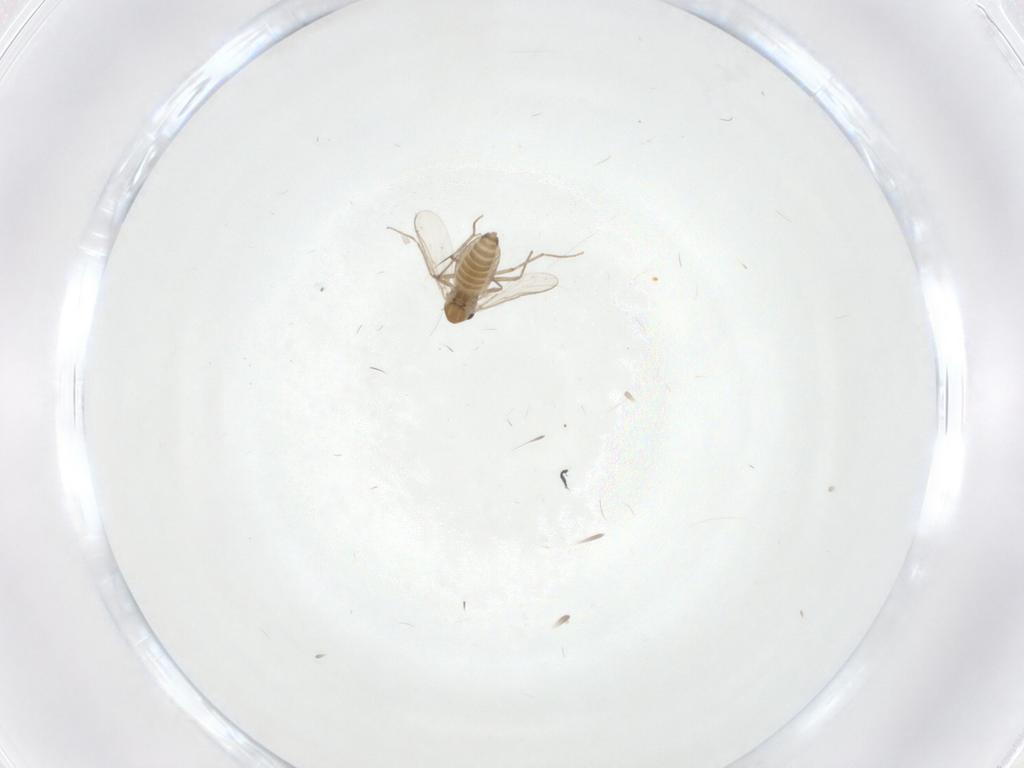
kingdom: Animalia
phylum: Arthropoda
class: Insecta
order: Diptera
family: Chironomidae
